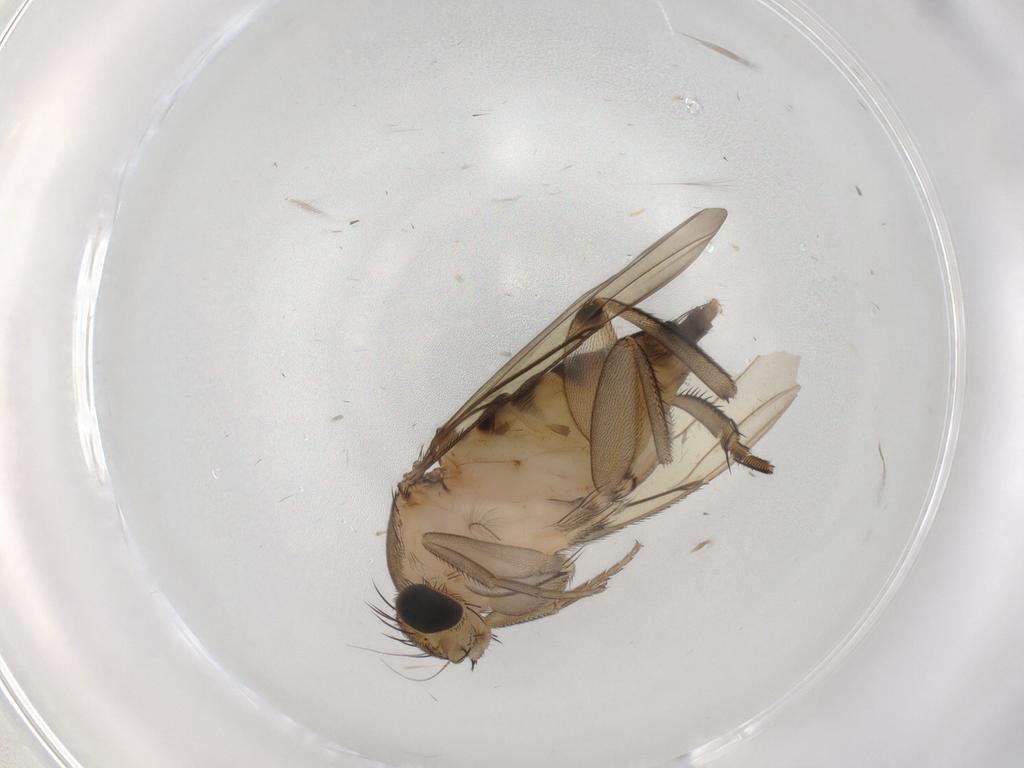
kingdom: Animalia
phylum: Arthropoda
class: Insecta
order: Diptera
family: Phoridae
